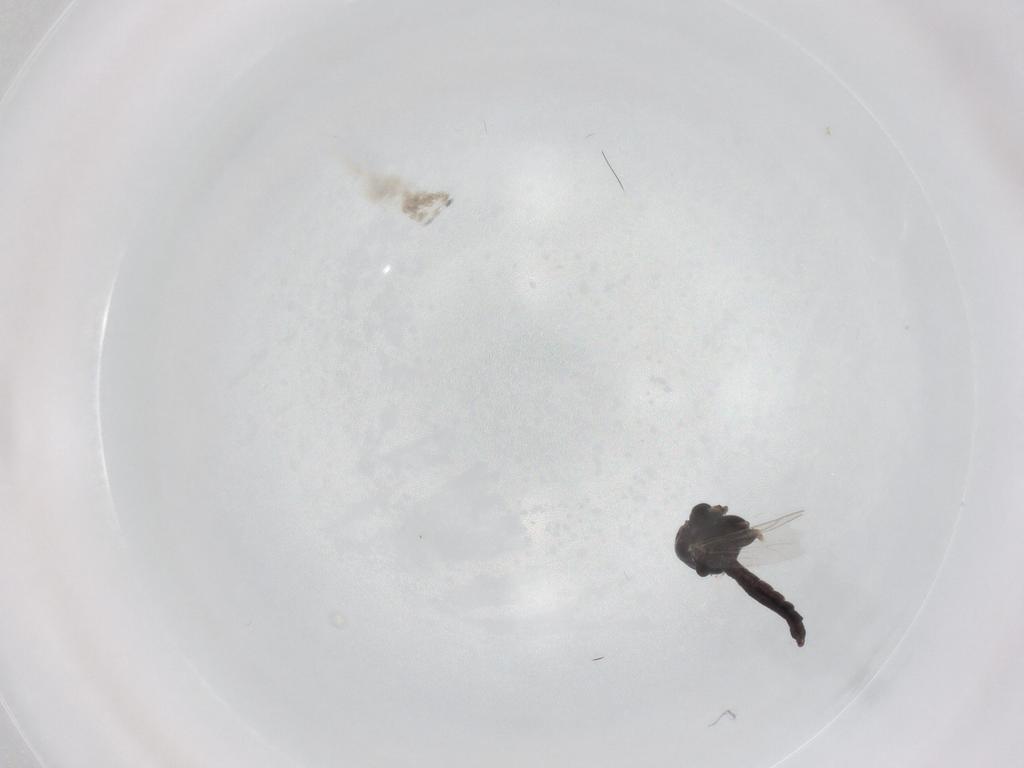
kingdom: Animalia
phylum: Arthropoda
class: Insecta
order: Diptera
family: Chironomidae
